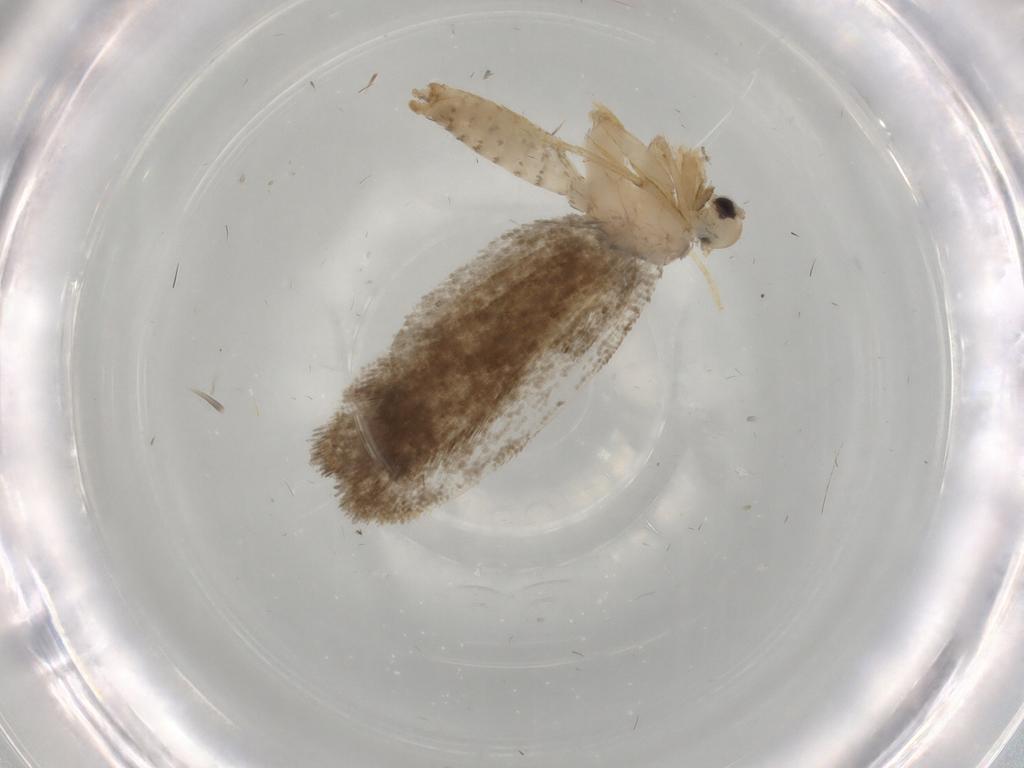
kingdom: Animalia
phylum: Arthropoda
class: Insecta
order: Lepidoptera
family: Psychidae
